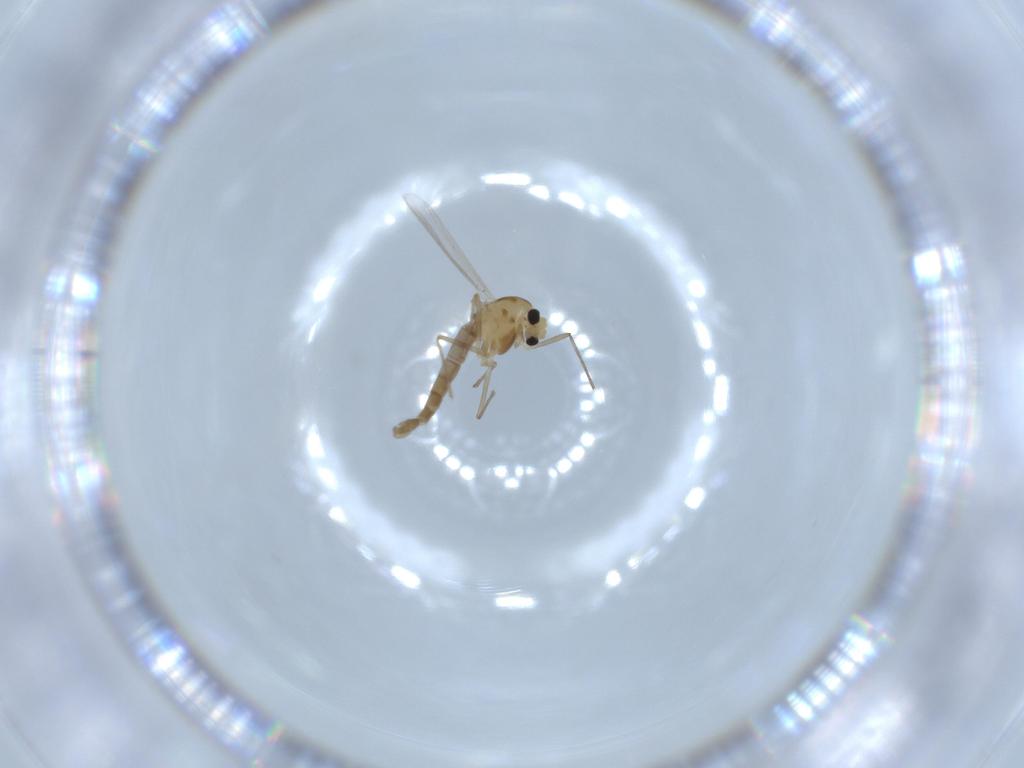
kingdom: Animalia
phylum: Arthropoda
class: Insecta
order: Diptera
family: Chironomidae
